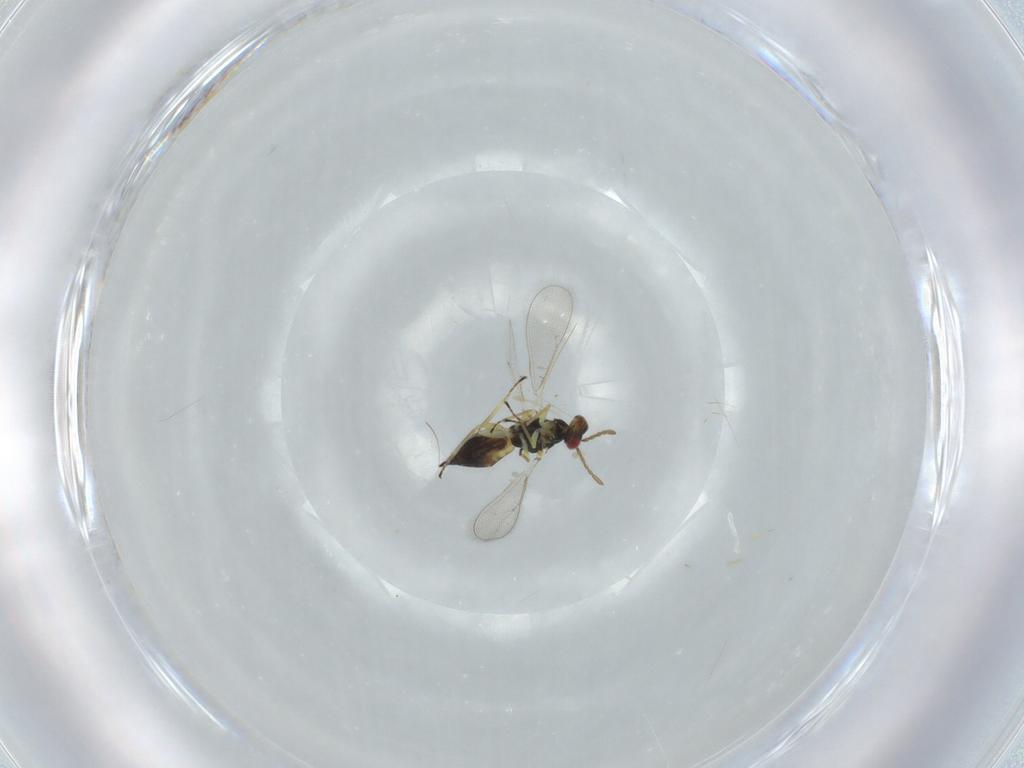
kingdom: Animalia
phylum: Arthropoda
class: Insecta
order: Hymenoptera
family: Eulophidae
